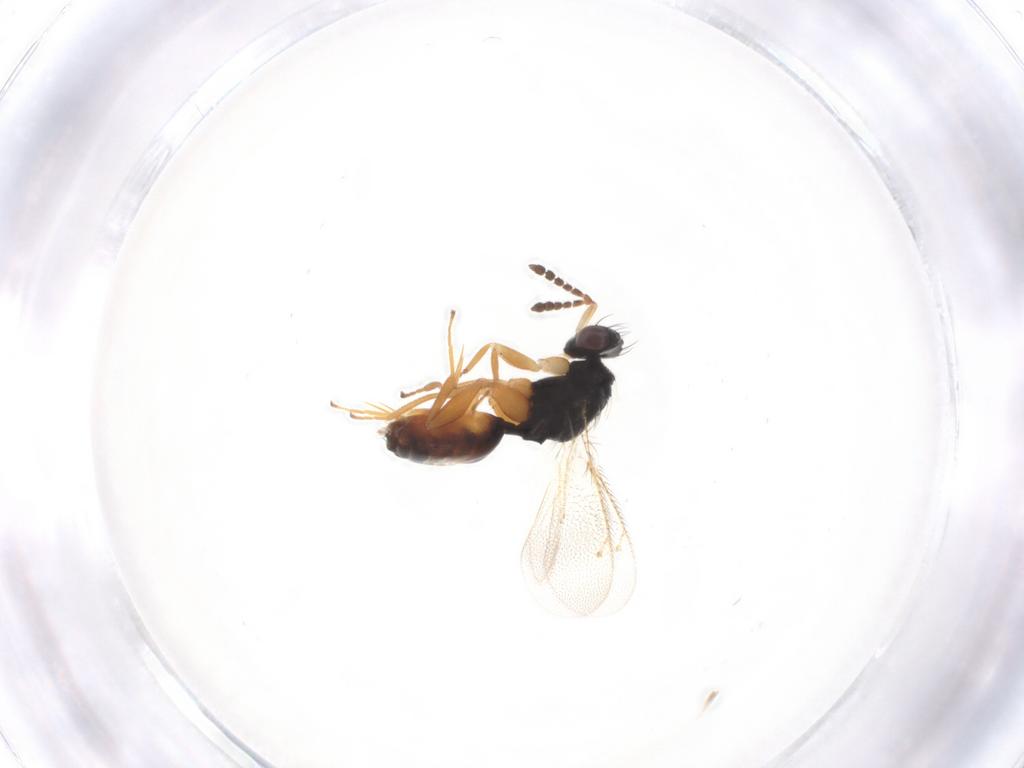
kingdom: Animalia
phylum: Arthropoda
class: Insecta
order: Hymenoptera
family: Eulophidae
